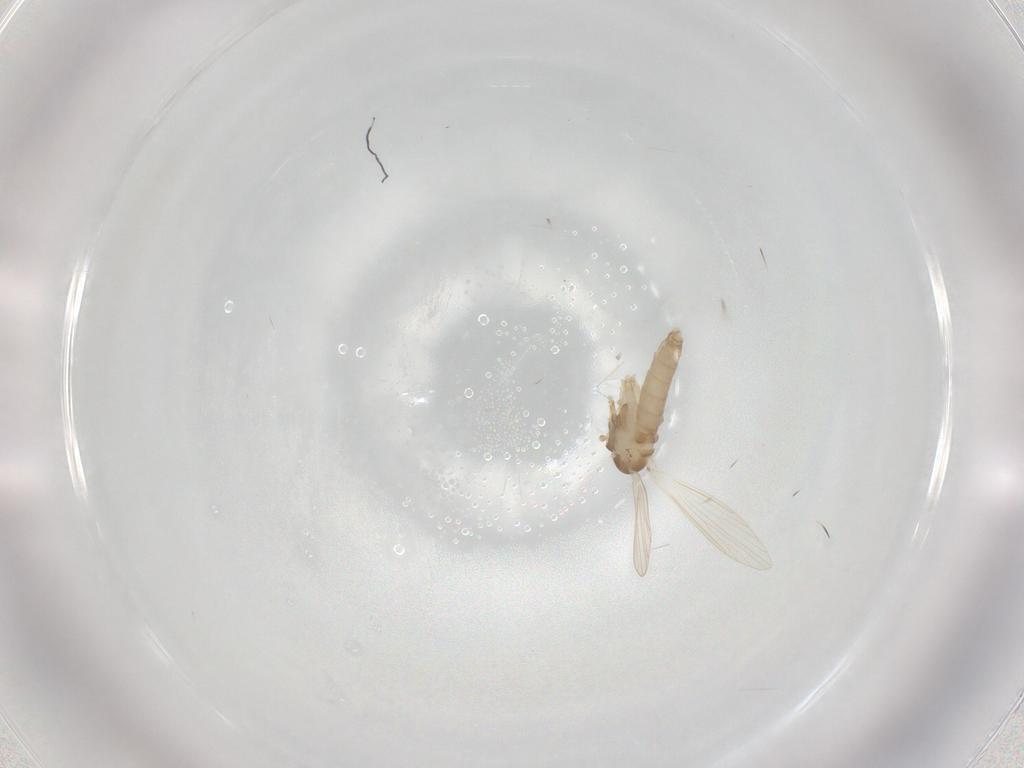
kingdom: Animalia
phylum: Arthropoda
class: Insecta
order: Diptera
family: Psychodidae
